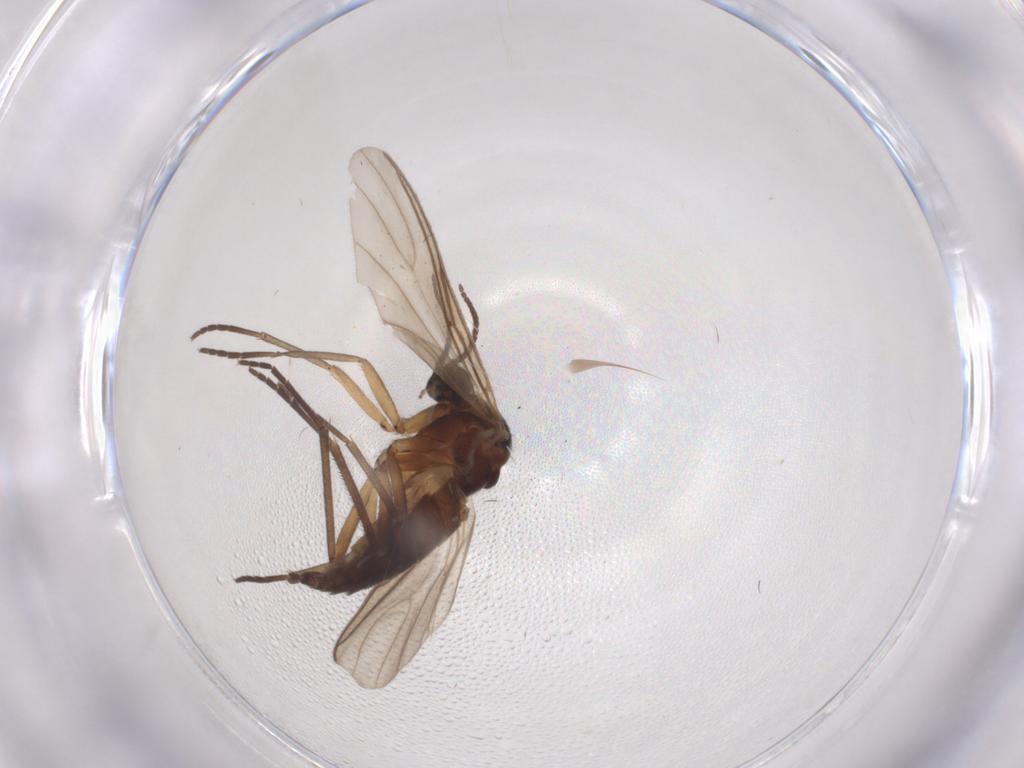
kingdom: Animalia
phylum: Arthropoda
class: Insecta
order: Diptera
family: Sciaridae
